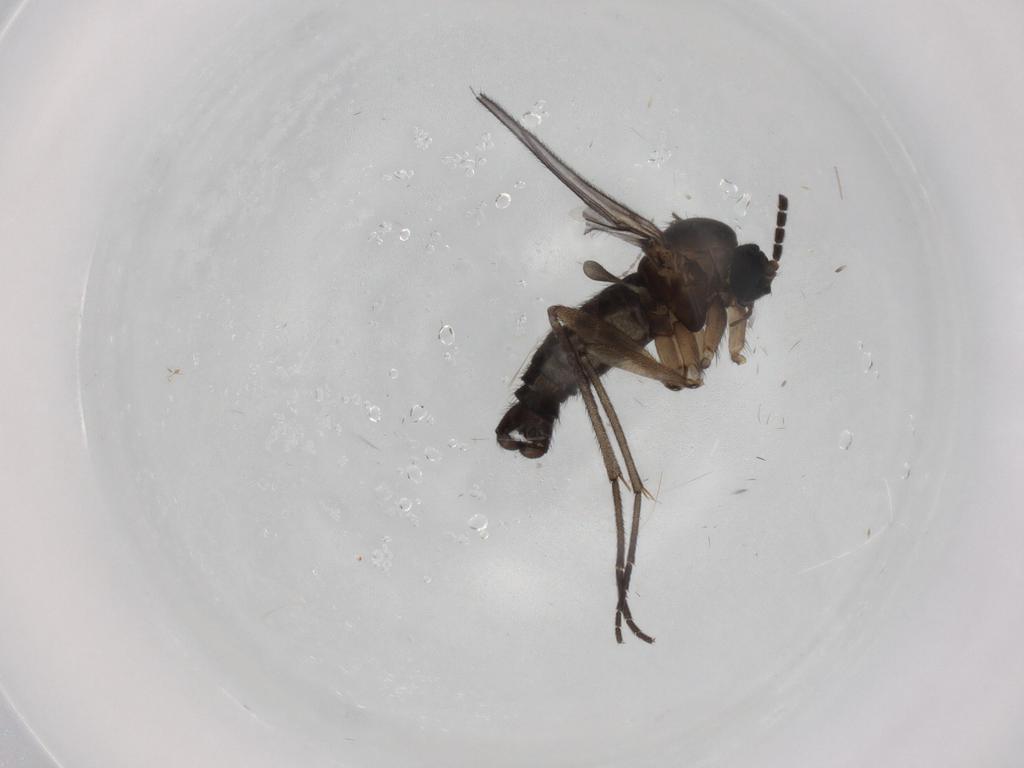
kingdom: Animalia
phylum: Arthropoda
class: Insecta
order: Diptera
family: Sciaridae
